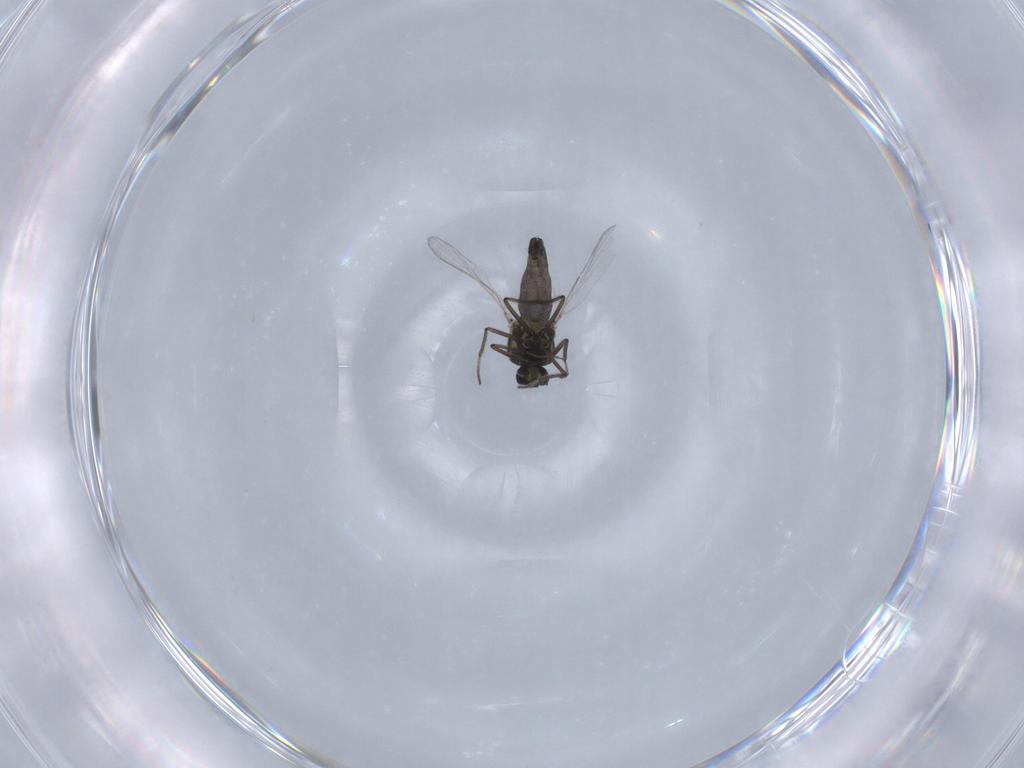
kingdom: Animalia
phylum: Arthropoda
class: Insecta
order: Diptera
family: Ceratopogonidae
